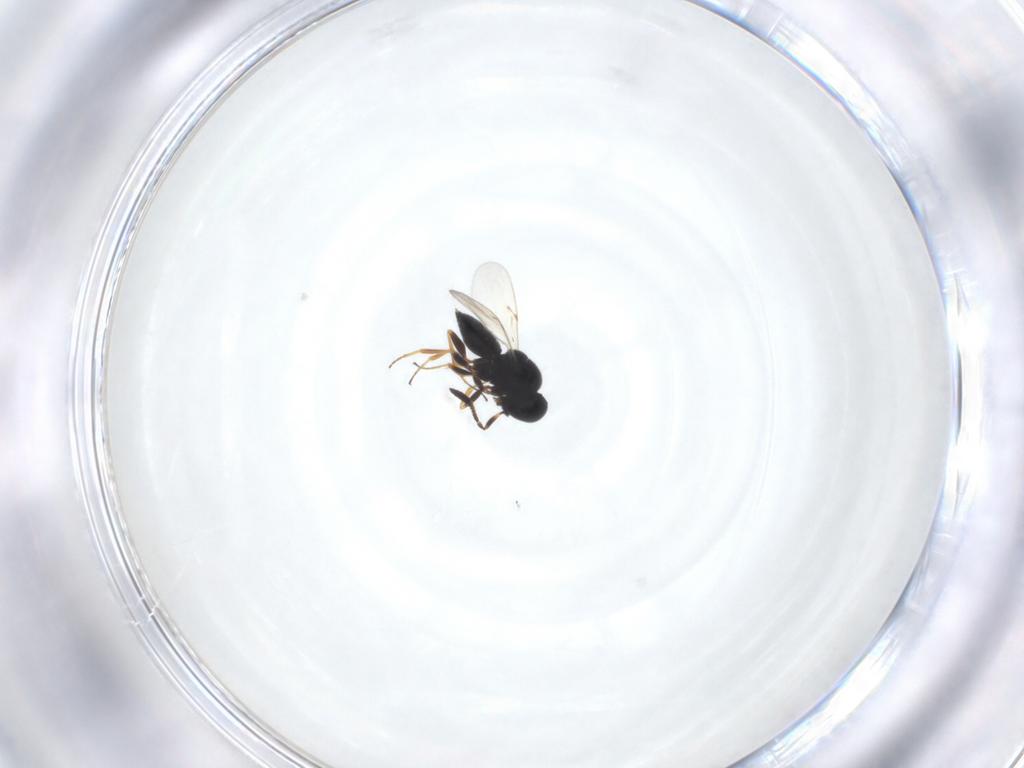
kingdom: Animalia
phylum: Arthropoda
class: Insecta
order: Hymenoptera
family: Scelionidae
